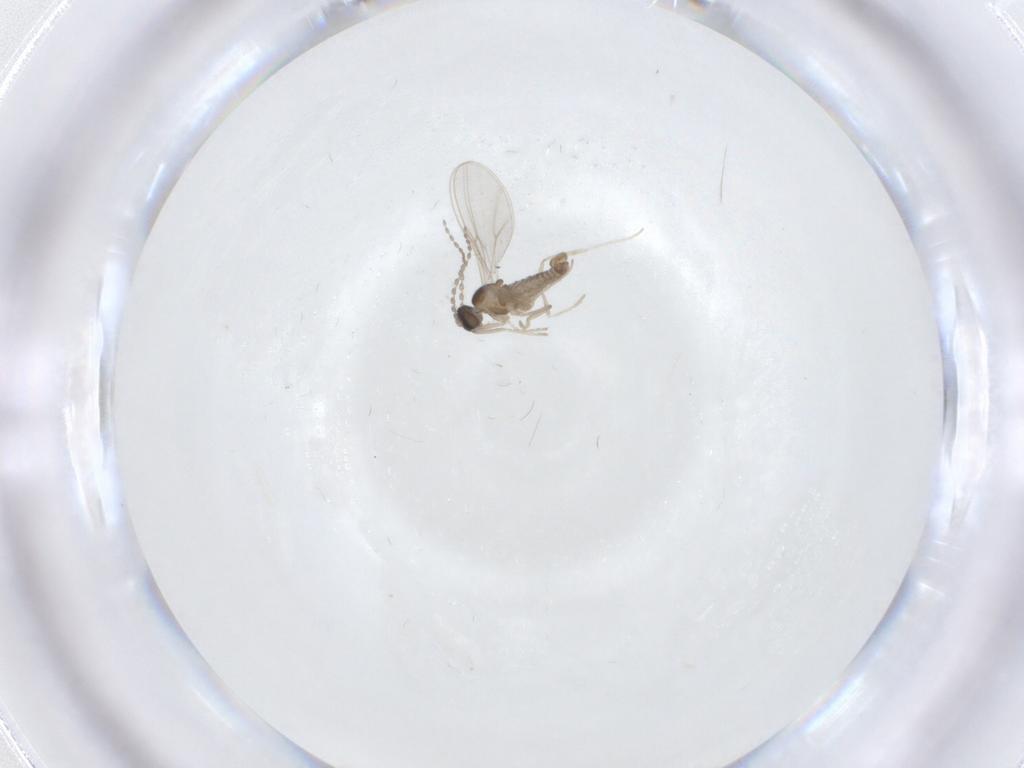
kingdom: Animalia
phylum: Arthropoda
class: Insecta
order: Diptera
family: Cecidomyiidae
